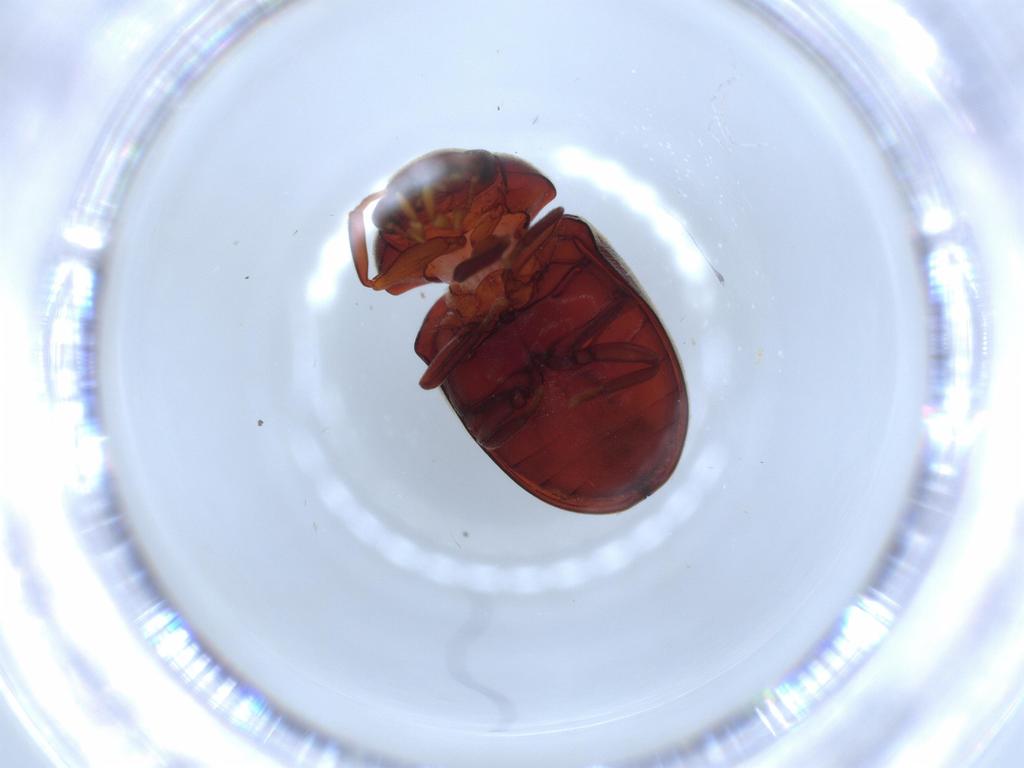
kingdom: Animalia
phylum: Arthropoda
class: Insecta
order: Coleoptera
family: Ptinidae
